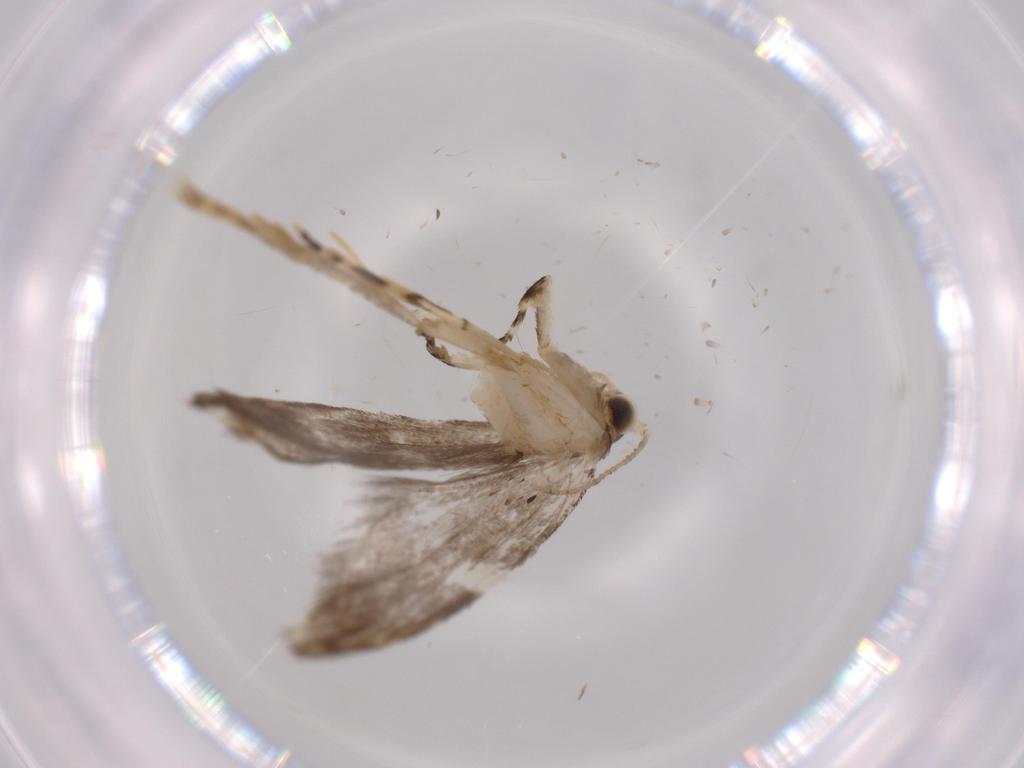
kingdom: Animalia
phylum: Arthropoda
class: Insecta
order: Lepidoptera
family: Tineidae
